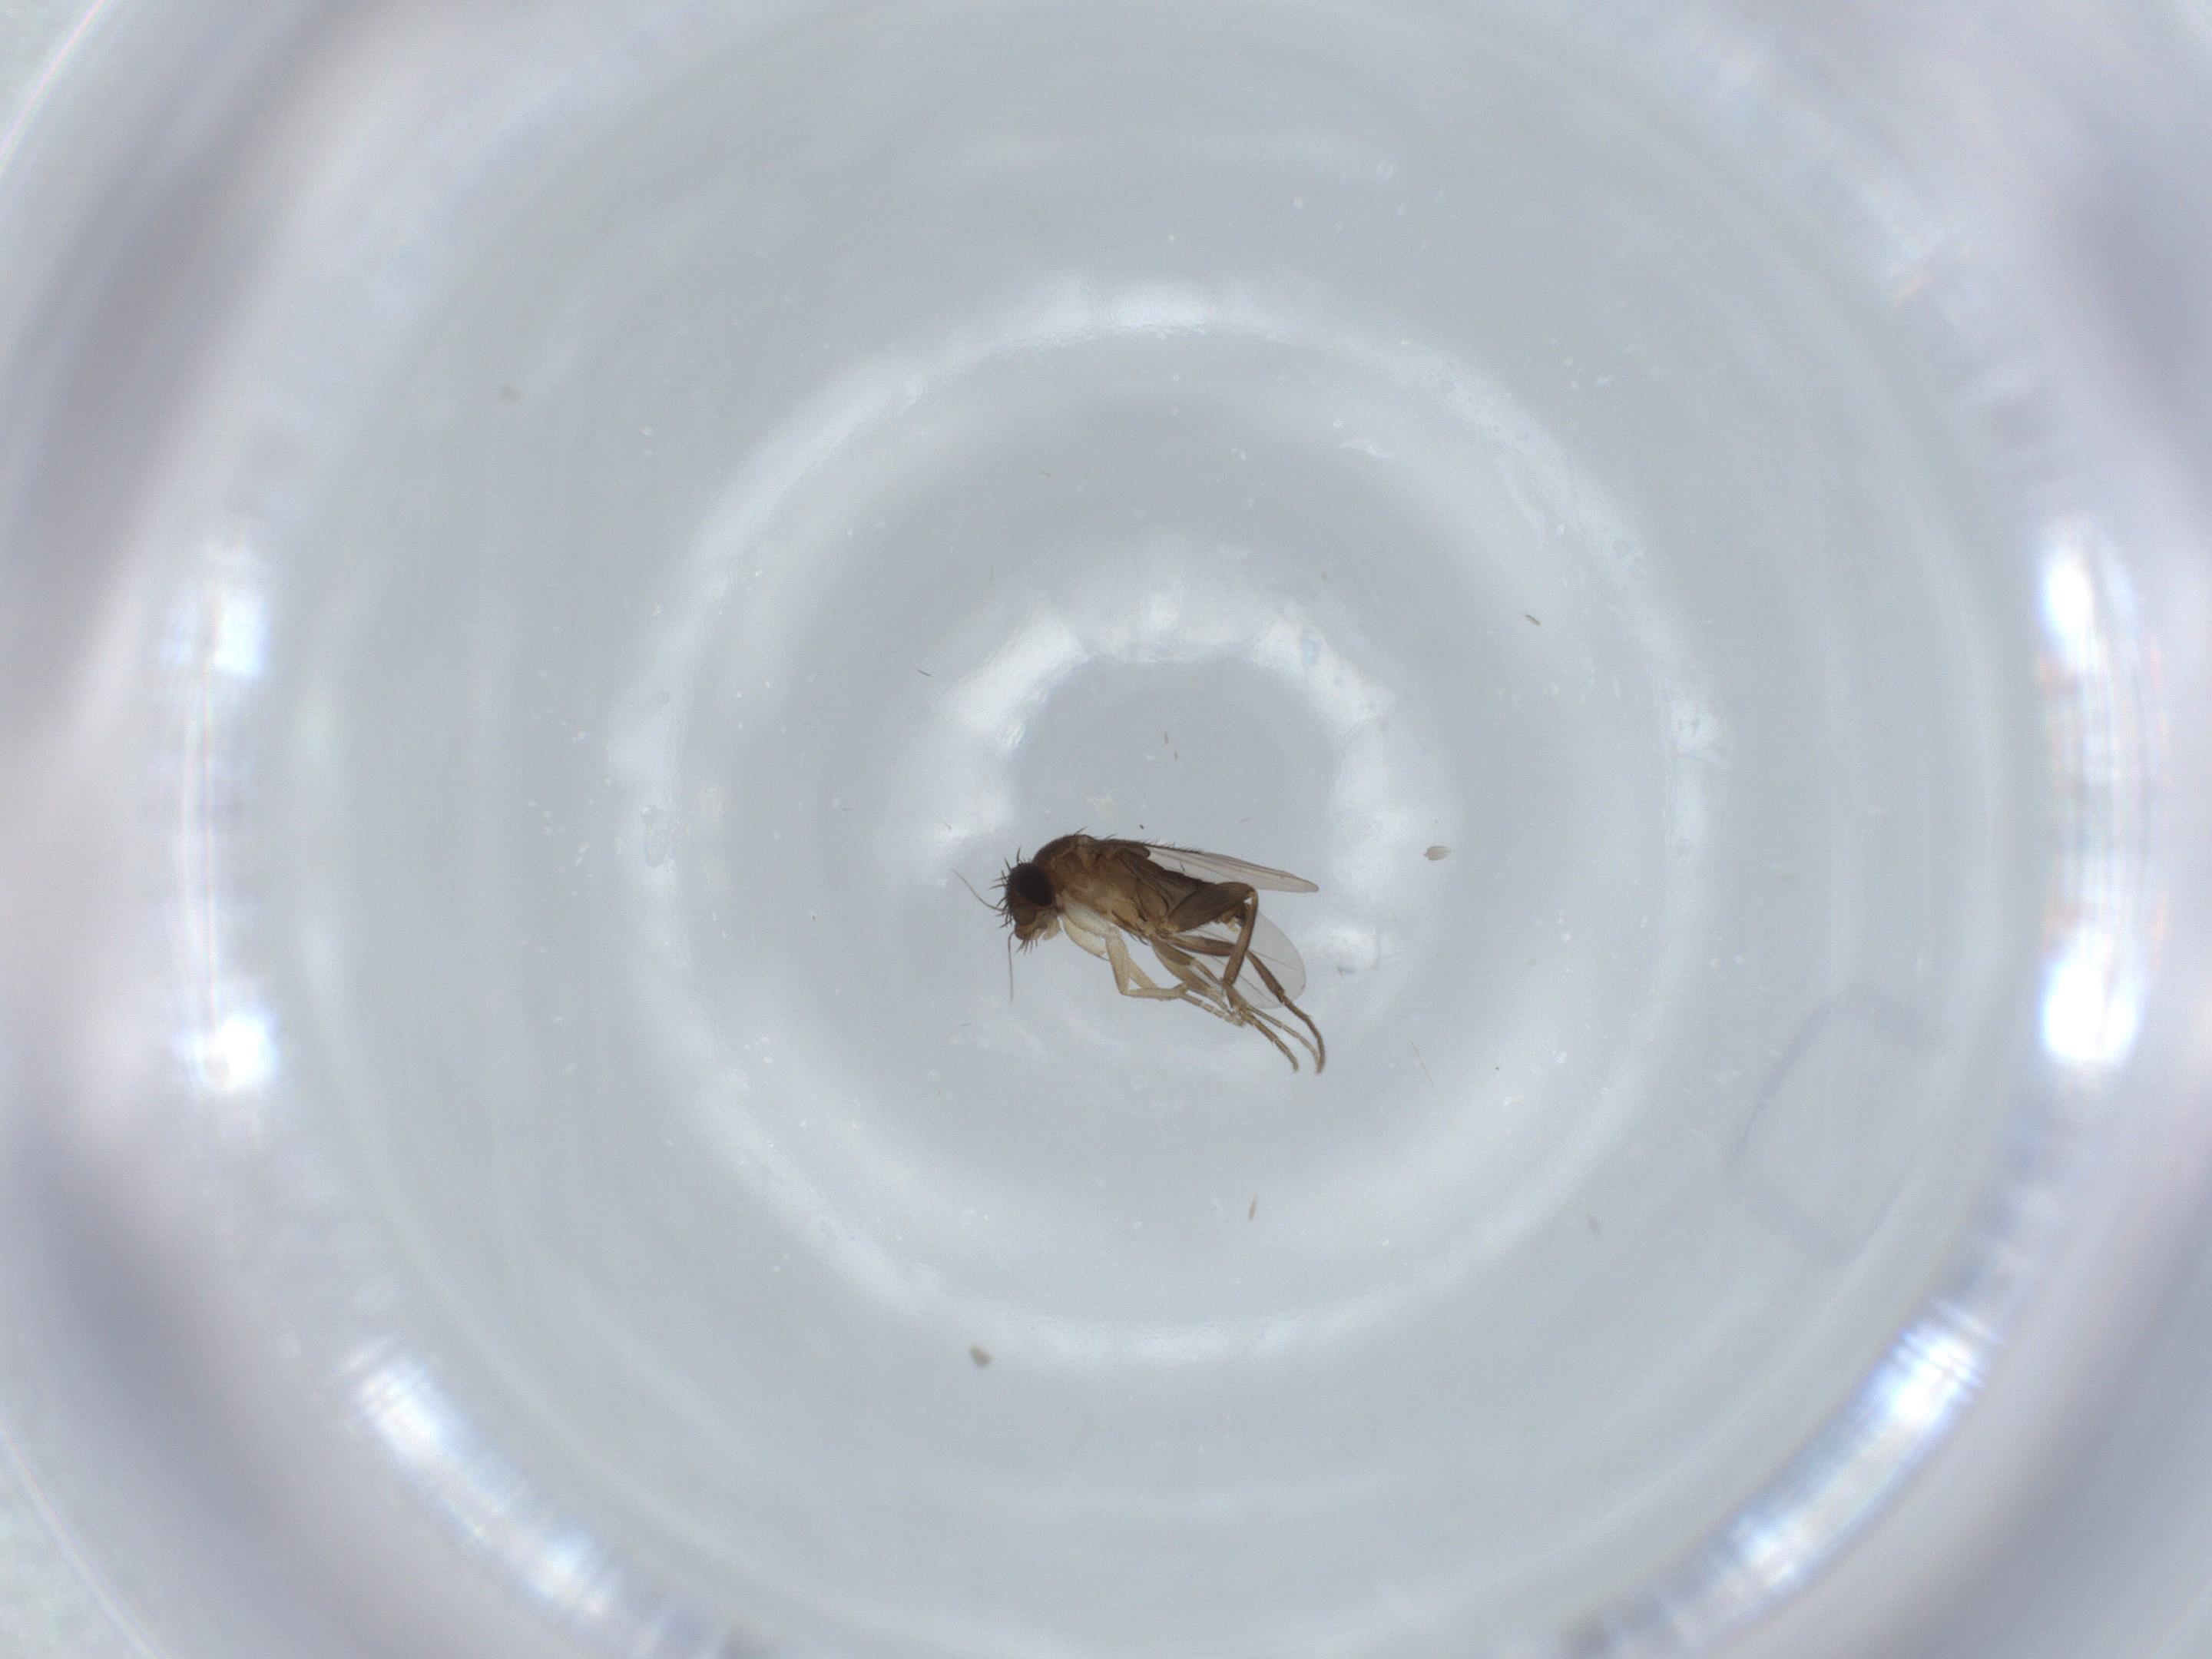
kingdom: Animalia
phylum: Arthropoda
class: Insecta
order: Diptera
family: Phoridae
